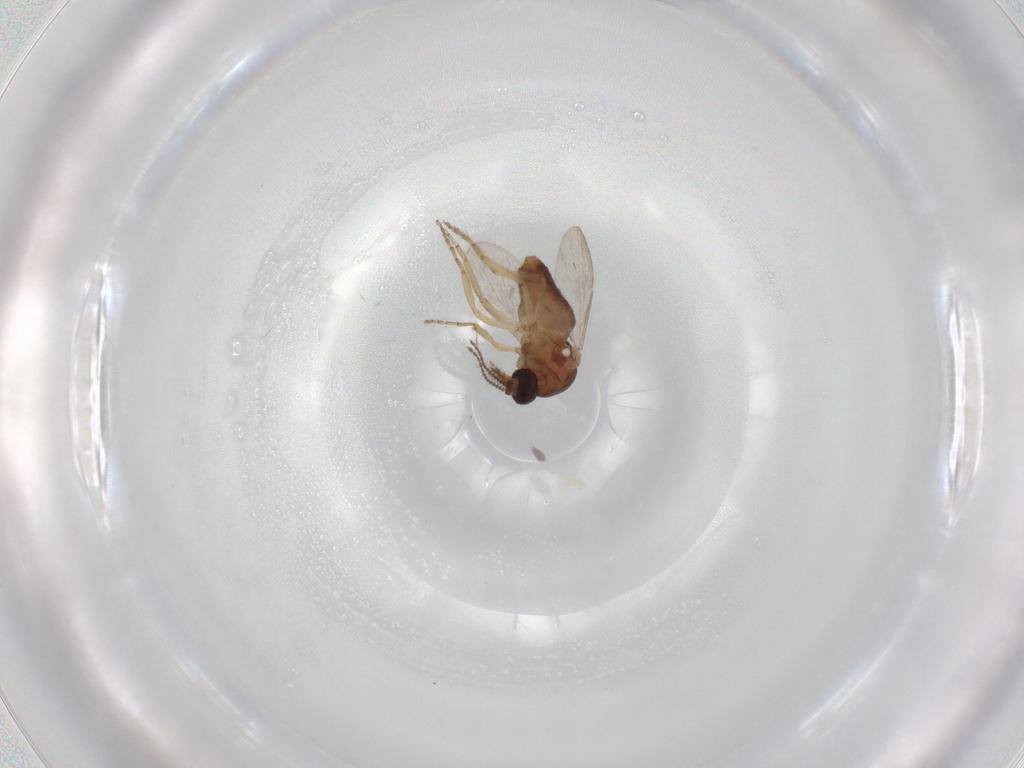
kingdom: Animalia
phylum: Arthropoda
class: Insecta
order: Diptera
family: Ceratopogonidae
